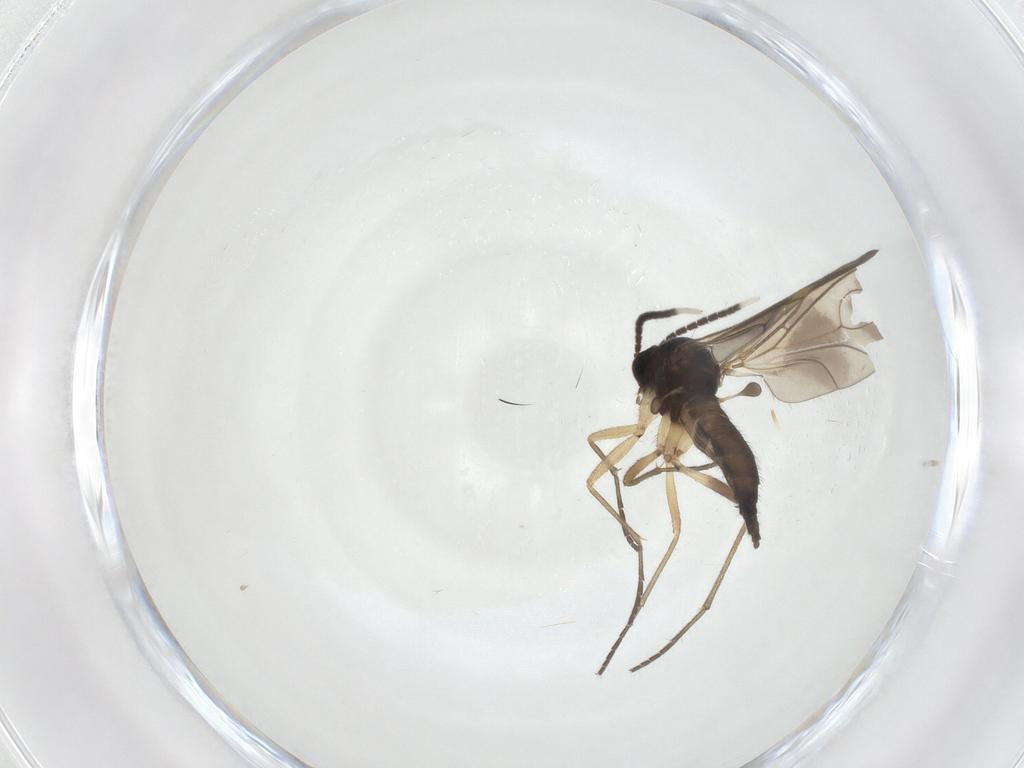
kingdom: Animalia
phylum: Arthropoda
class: Insecta
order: Diptera
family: Sciaridae
